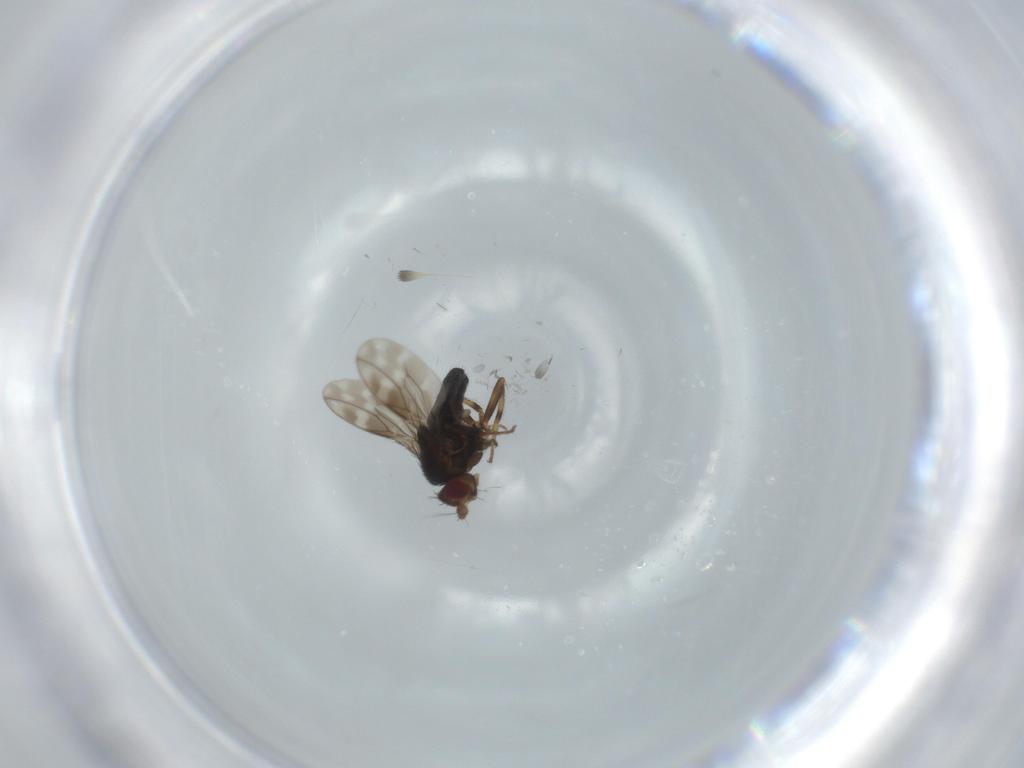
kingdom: Animalia
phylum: Arthropoda
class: Insecta
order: Diptera
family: Sphaeroceridae
